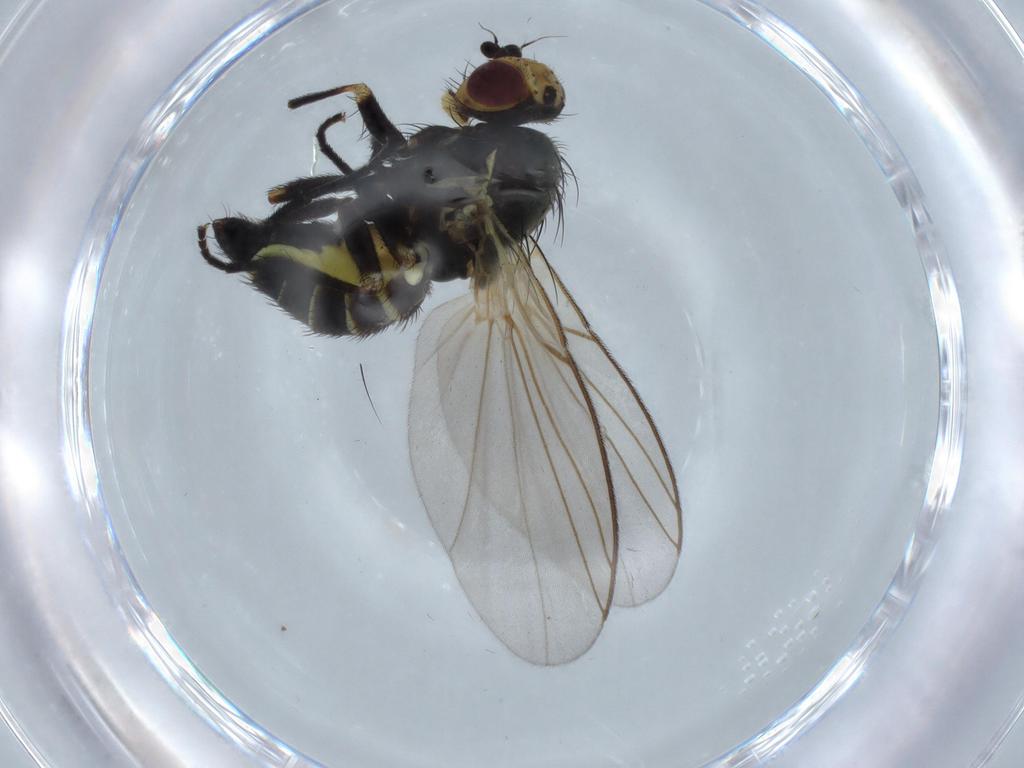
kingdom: Animalia
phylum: Arthropoda
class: Insecta
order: Diptera
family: Agromyzidae
